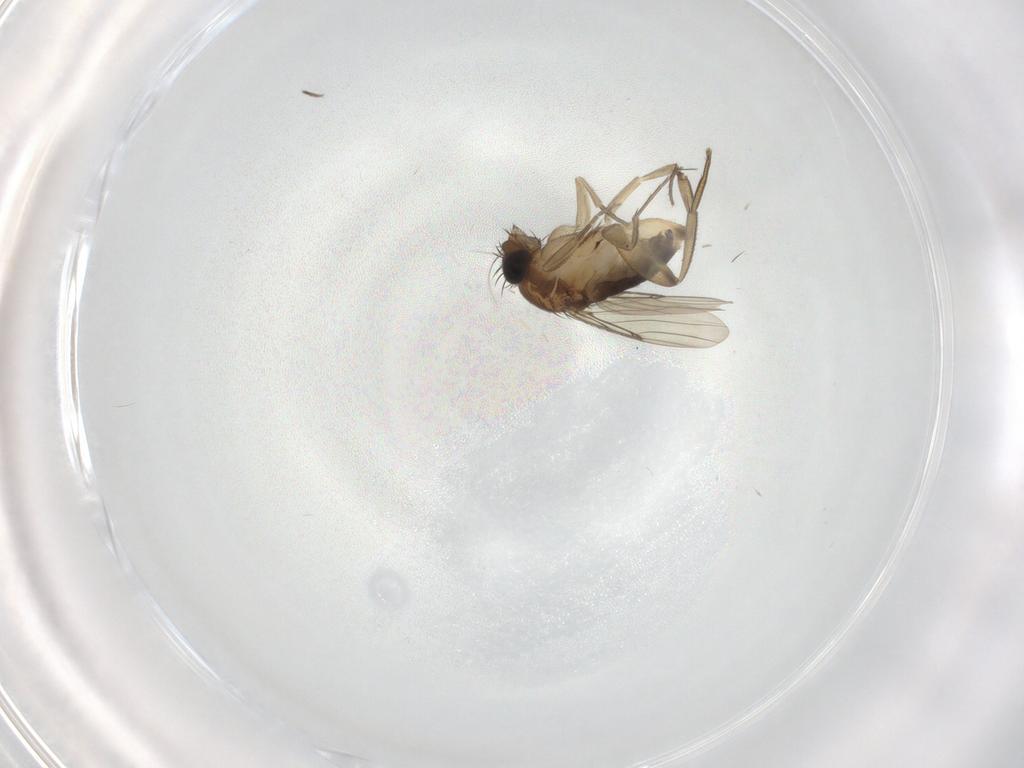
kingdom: Animalia
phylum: Arthropoda
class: Insecta
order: Diptera
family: Phoridae
